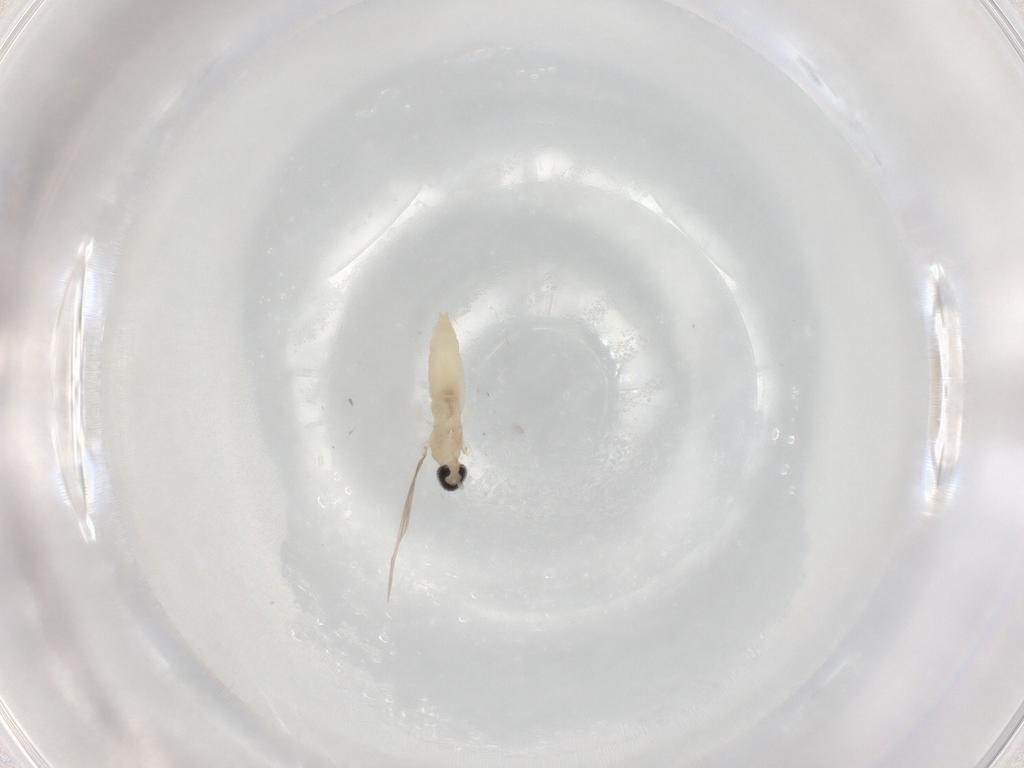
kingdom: Animalia
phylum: Arthropoda
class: Insecta
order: Diptera
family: Cecidomyiidae
